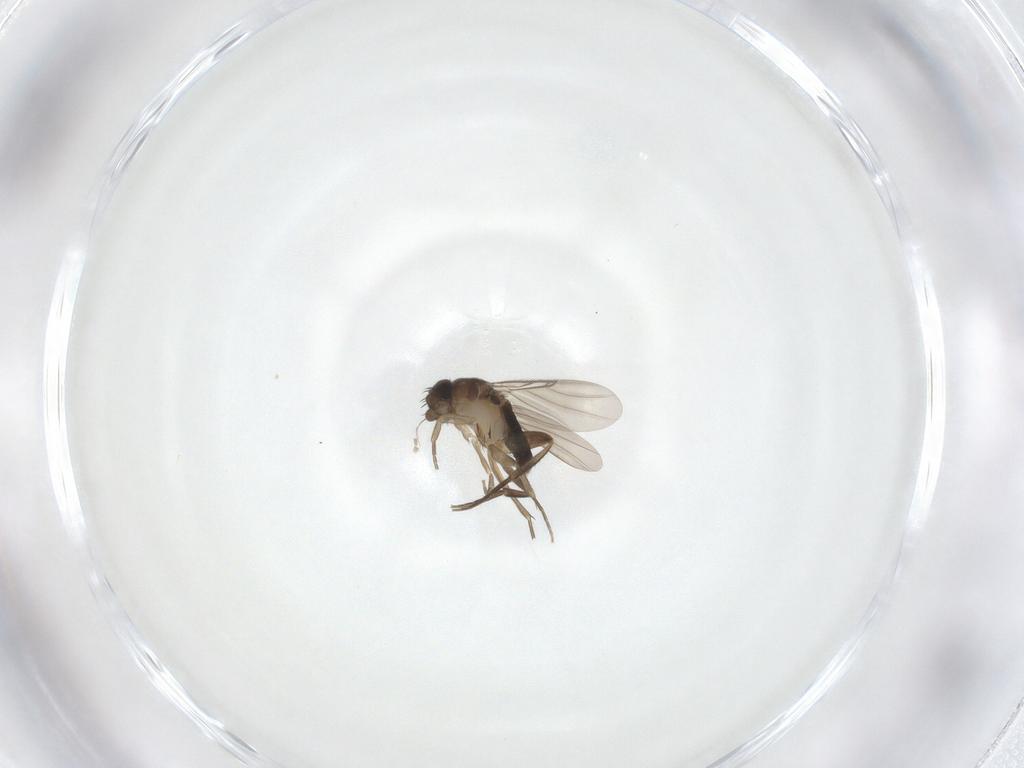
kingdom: Animalia
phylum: Arthropoda
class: Insecta
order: Diptera
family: Phoridae
